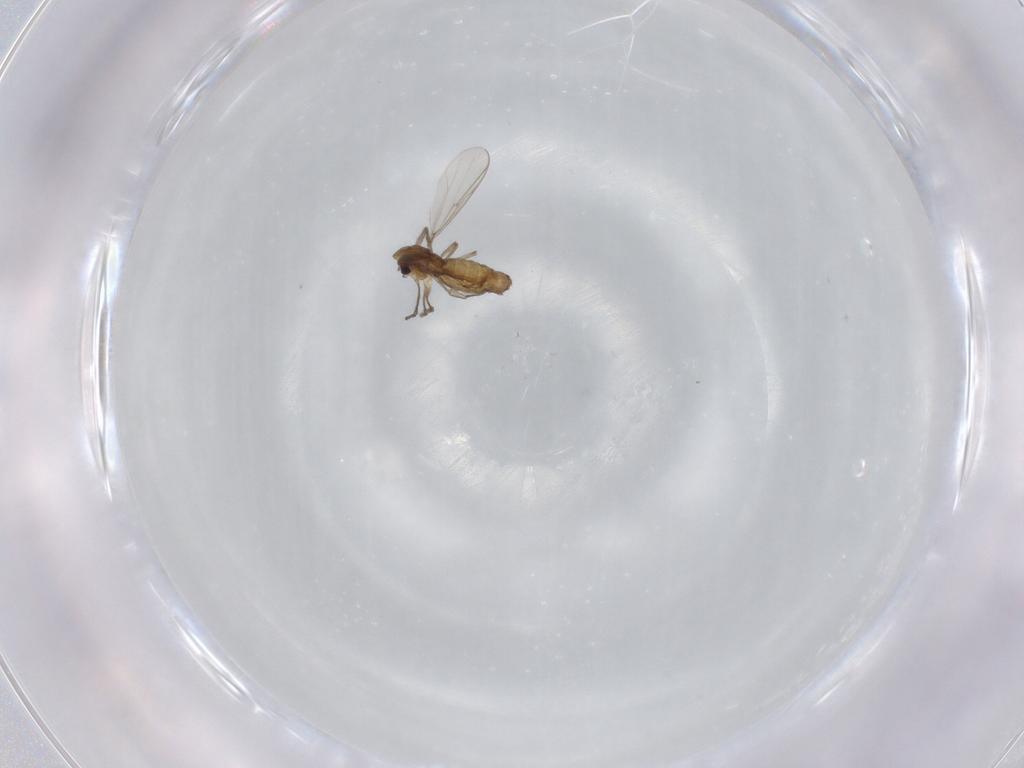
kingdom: Animalia
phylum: Arthropoda
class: Insecta
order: Diptera
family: Chironomidae
